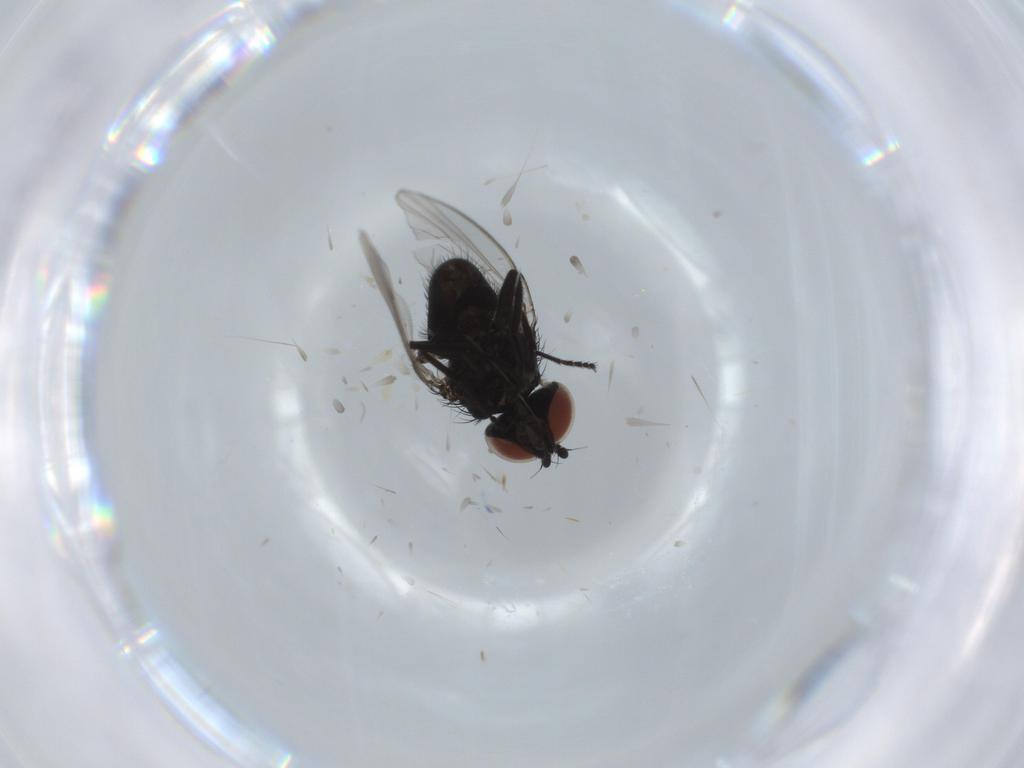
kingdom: Animalia
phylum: Arthropoda
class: Insecta
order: Diptera
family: Milichiidae
